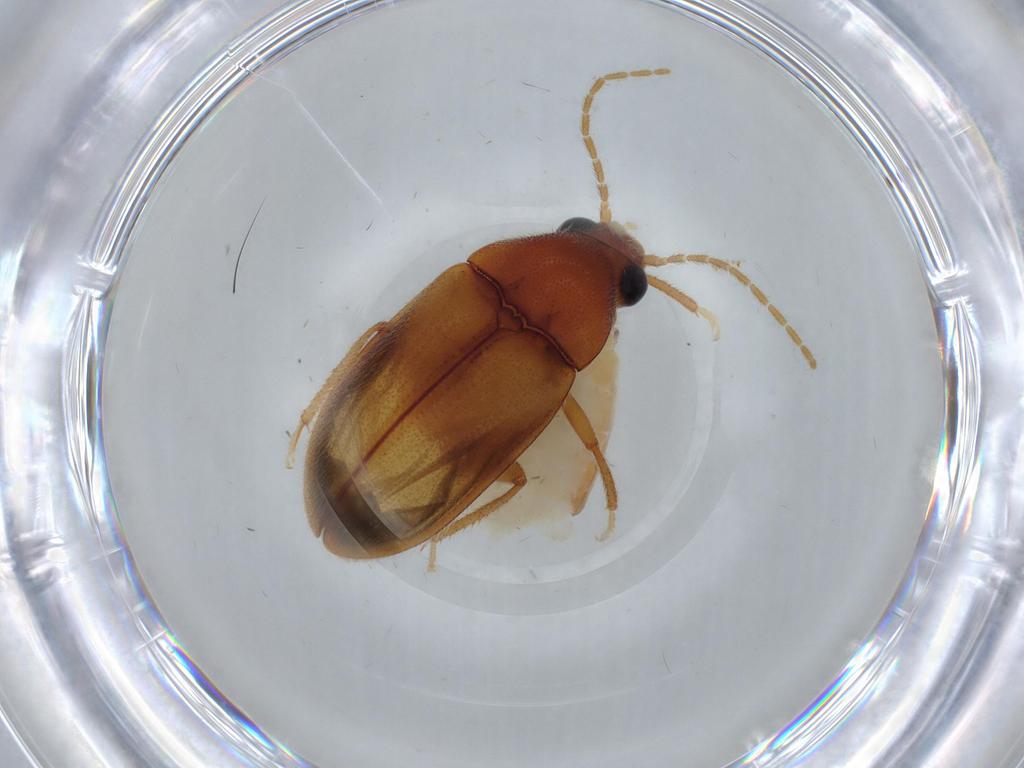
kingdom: Animalia
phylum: Arthropoda
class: Insecta
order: Coleoptera
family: Ptilodactylidae
